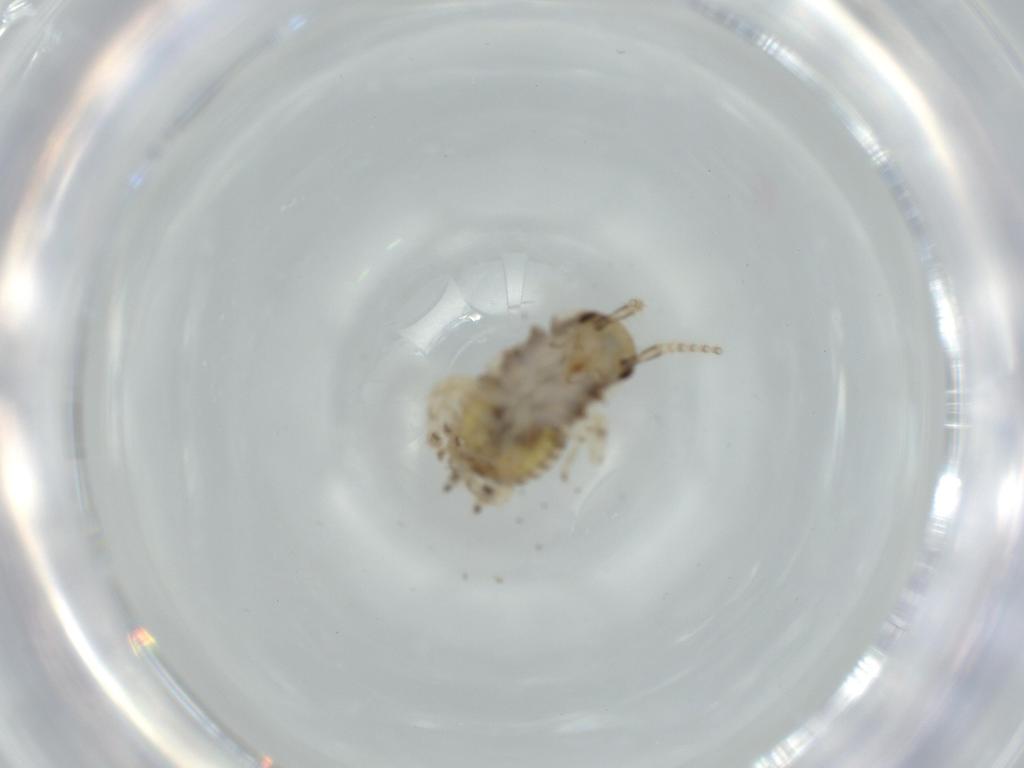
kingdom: Animalia
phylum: Arthropoda
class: Insecta
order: Blattodea
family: Ectobiidae
